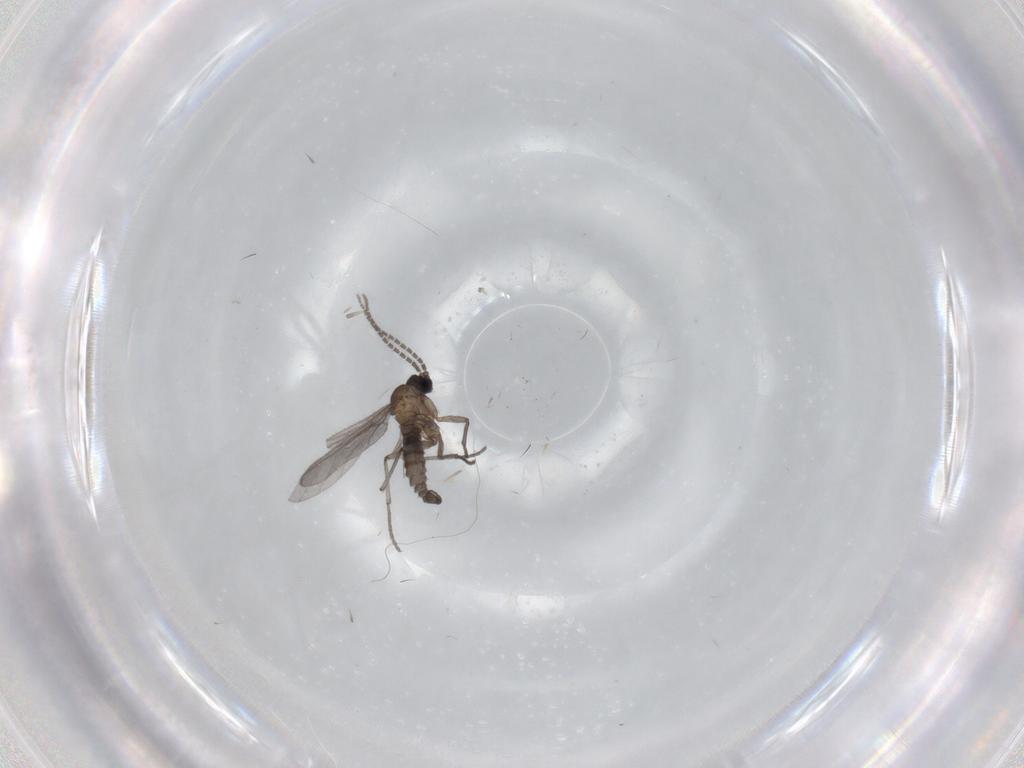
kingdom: Animalia
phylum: Arthropoda
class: Insecta
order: Diptera
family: Sciaridae
